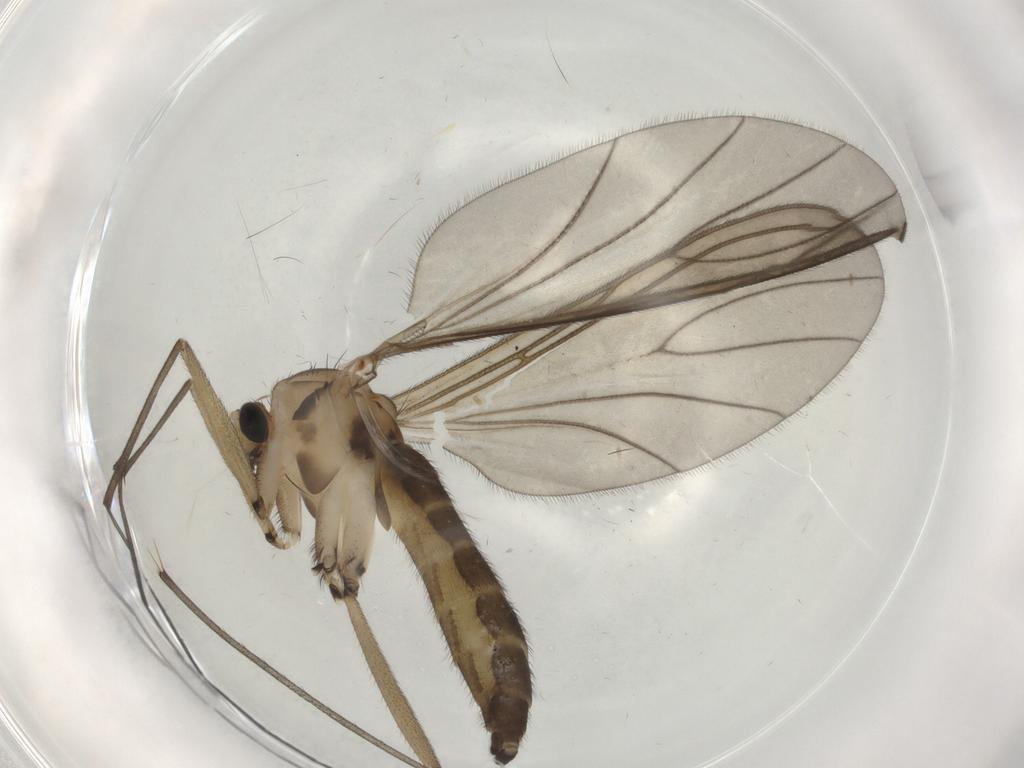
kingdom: Animalia
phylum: Arthropoda
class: Insecta
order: Diptera
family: Sciaridae
